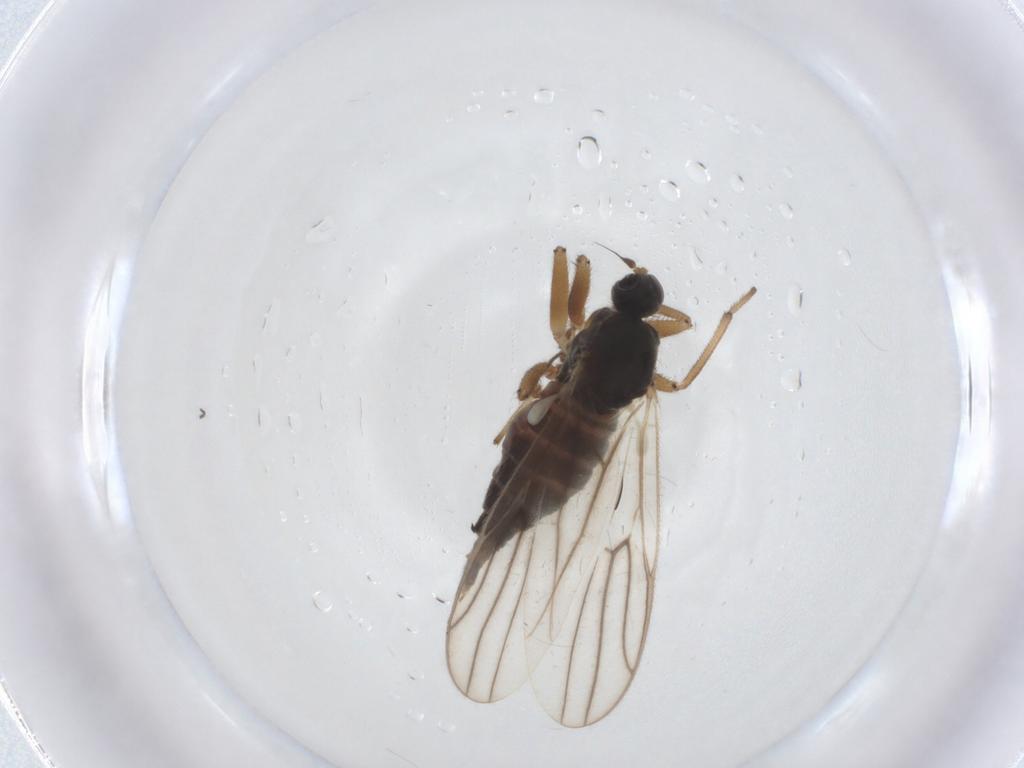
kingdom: Animalia
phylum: Arthropoda
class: Insecta
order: Diptera
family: Hybotidae
